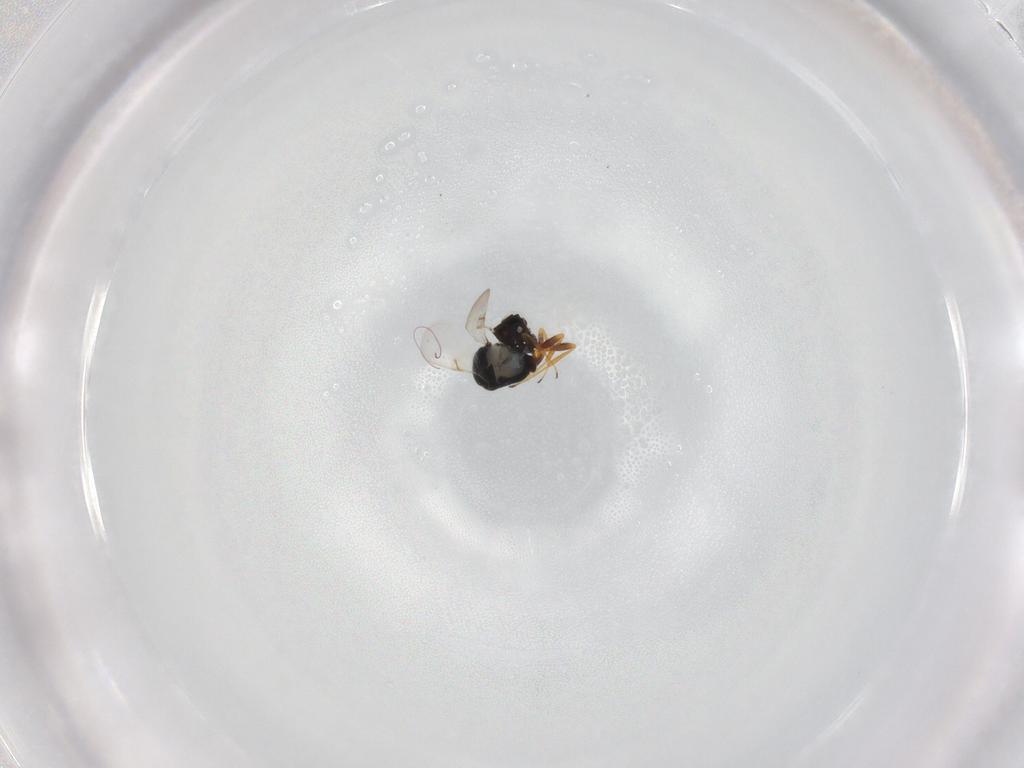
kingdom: Animalia
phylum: Arthropoda
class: Insecta
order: Hymenoptera
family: Scelionidae
